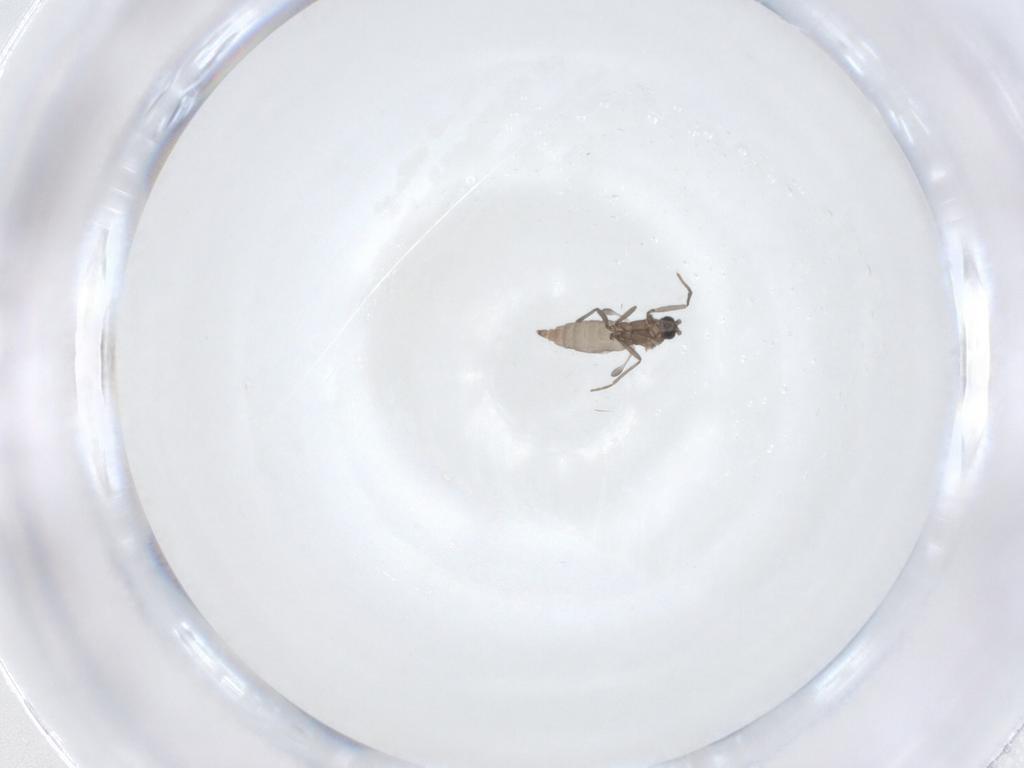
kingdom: Animalia
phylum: Arthropoda
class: Insecta
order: Diptera
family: Sciaridae
